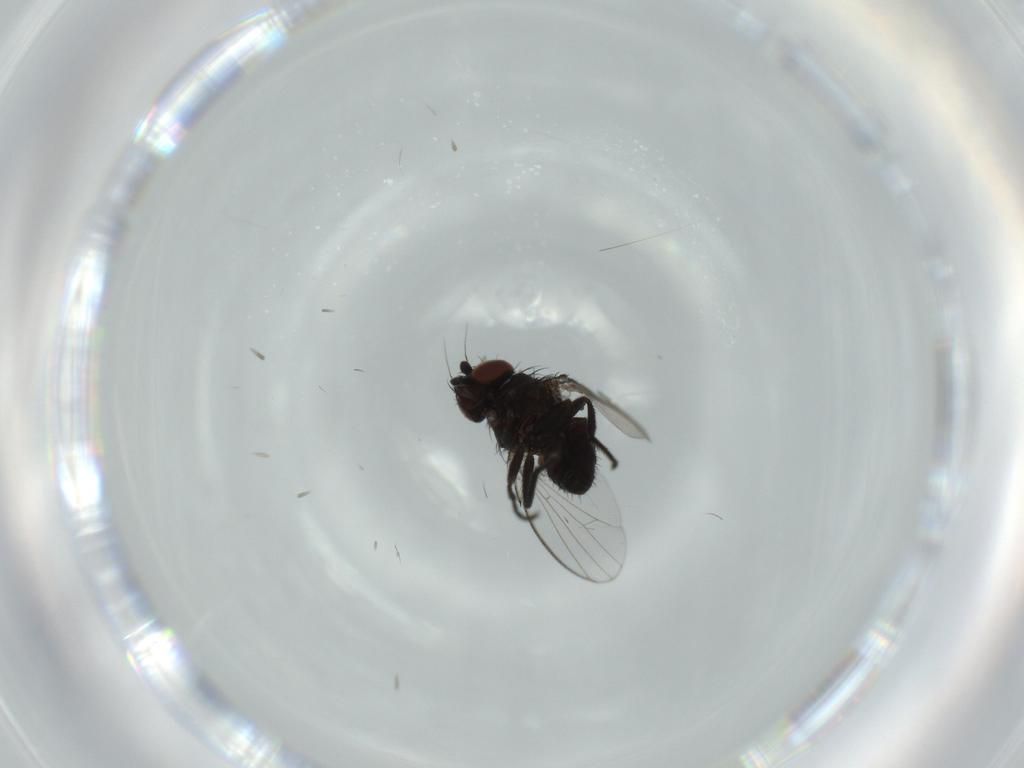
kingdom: Animalia
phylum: Arthropoda
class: Insecta
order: Diptera
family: Milichiidae
